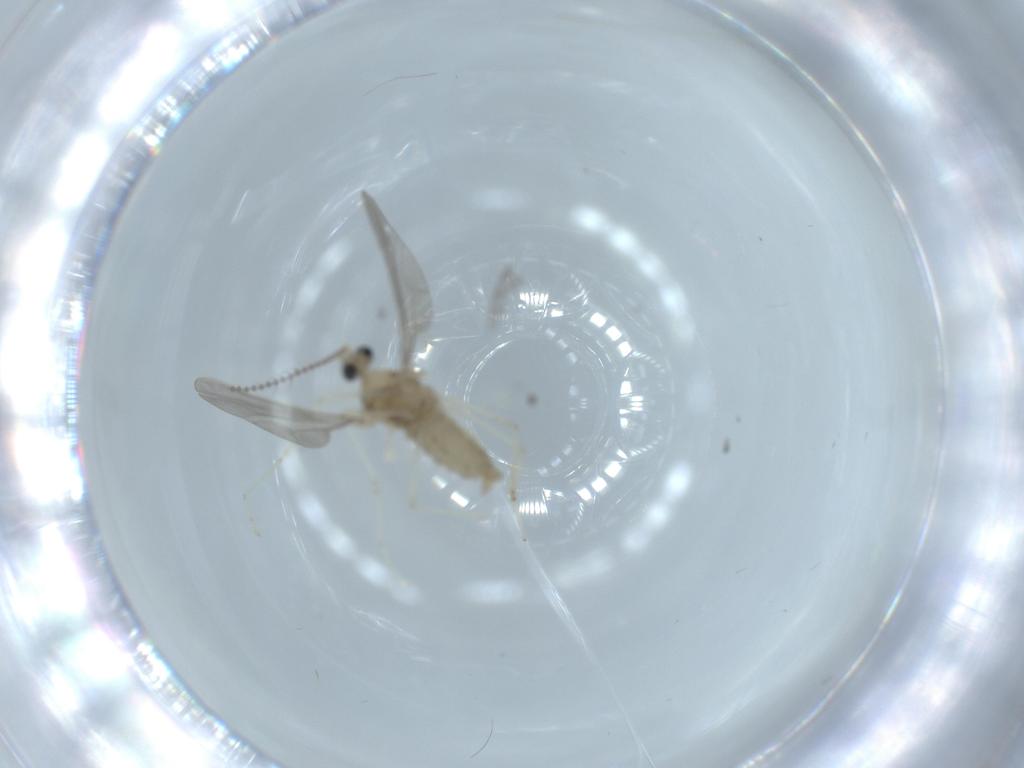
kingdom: Animalia
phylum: Arthropoda
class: Insecta
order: Diptera
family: Cecidomyiidae
